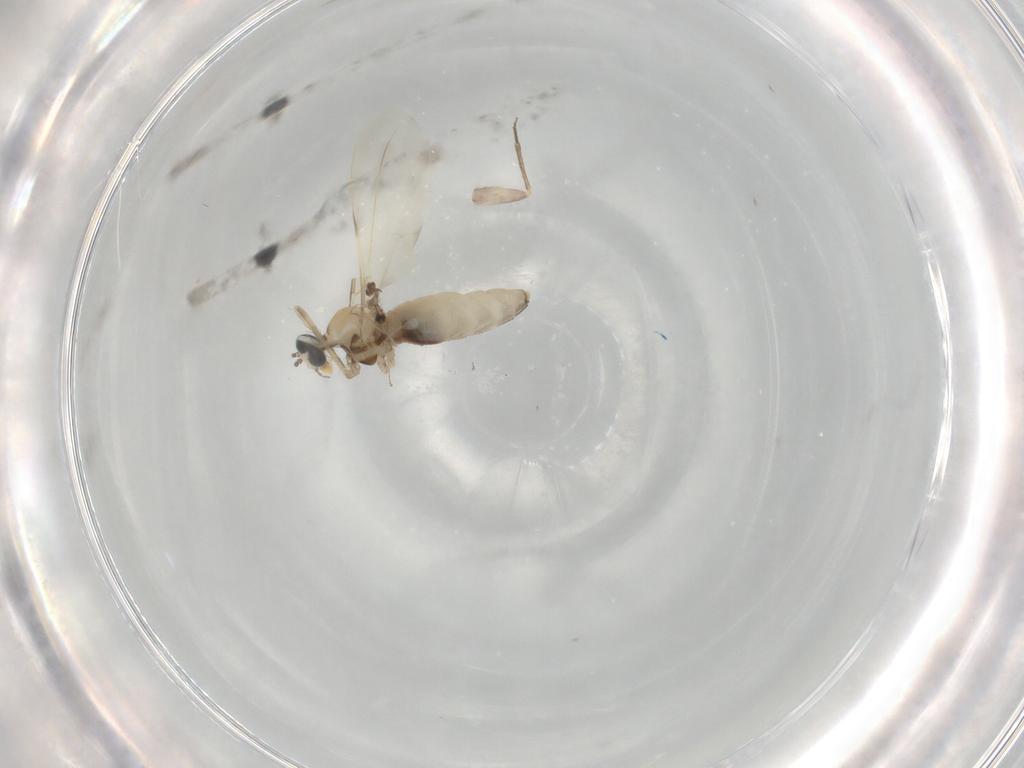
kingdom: Animalia
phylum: Arthropoda
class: Insecta
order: Diptera
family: Cecidomyiidae
